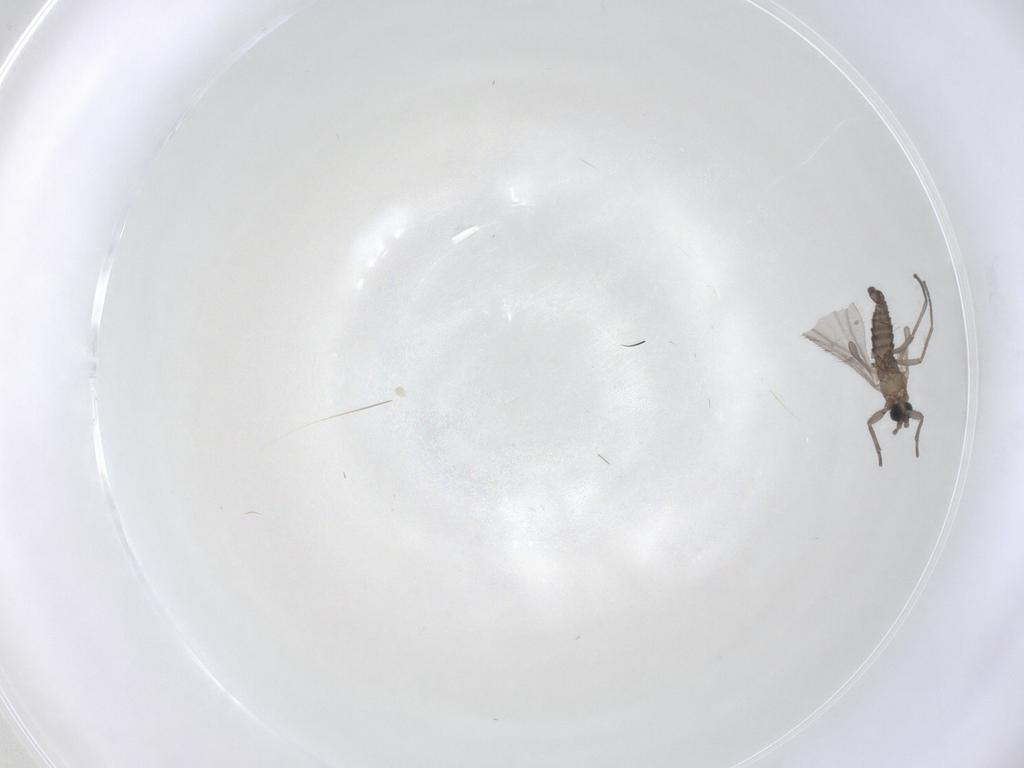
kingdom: Animalia
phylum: Arthropoda
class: Insecta
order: Diptera
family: Sciaridae
